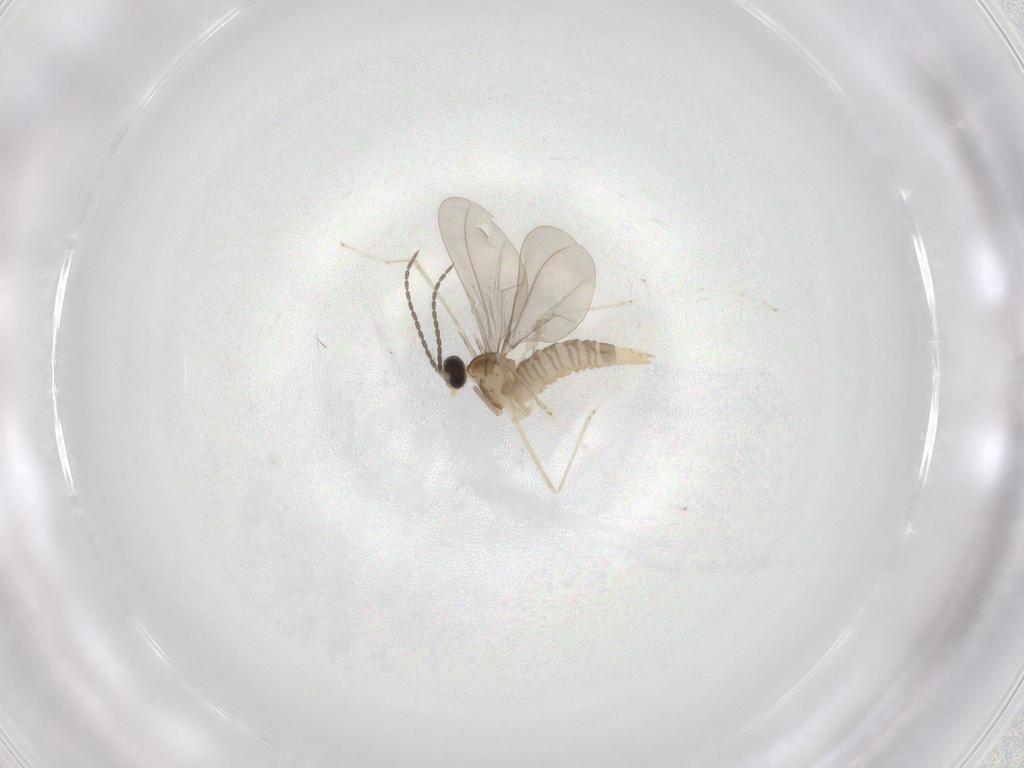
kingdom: Animalia
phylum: Arthropoda
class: Insecta
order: Diptera
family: Cecidomyiidae
